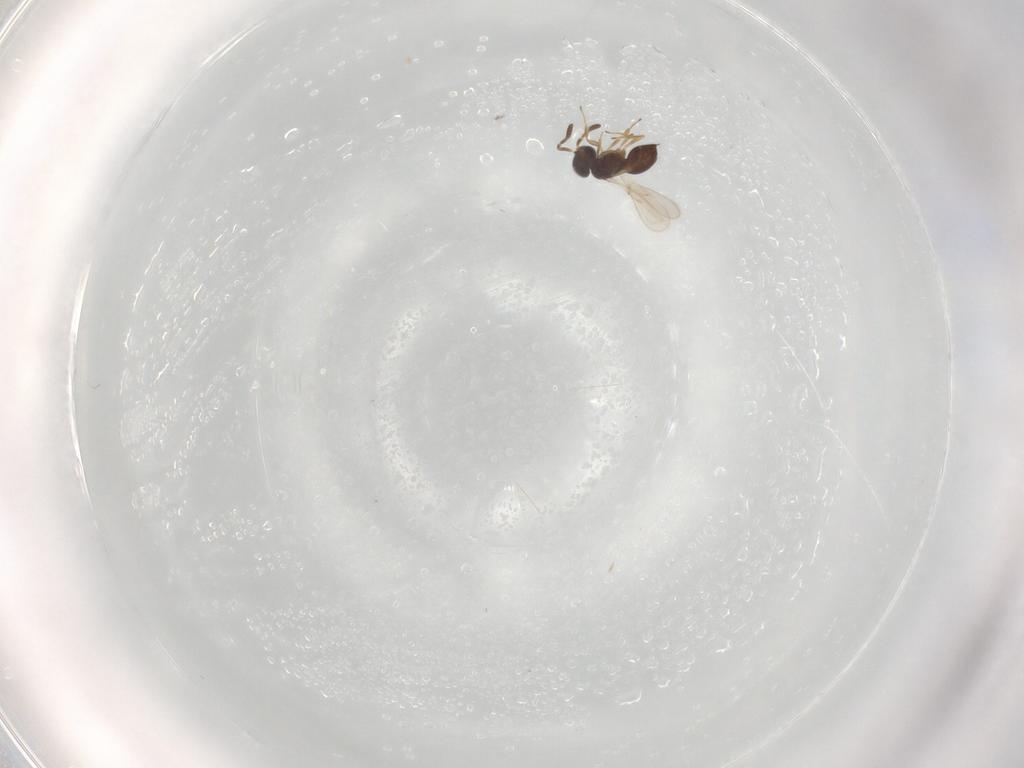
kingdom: Animalia
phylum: Arthropoda
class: Insecta
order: Hymenoptera
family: Scelionidae
